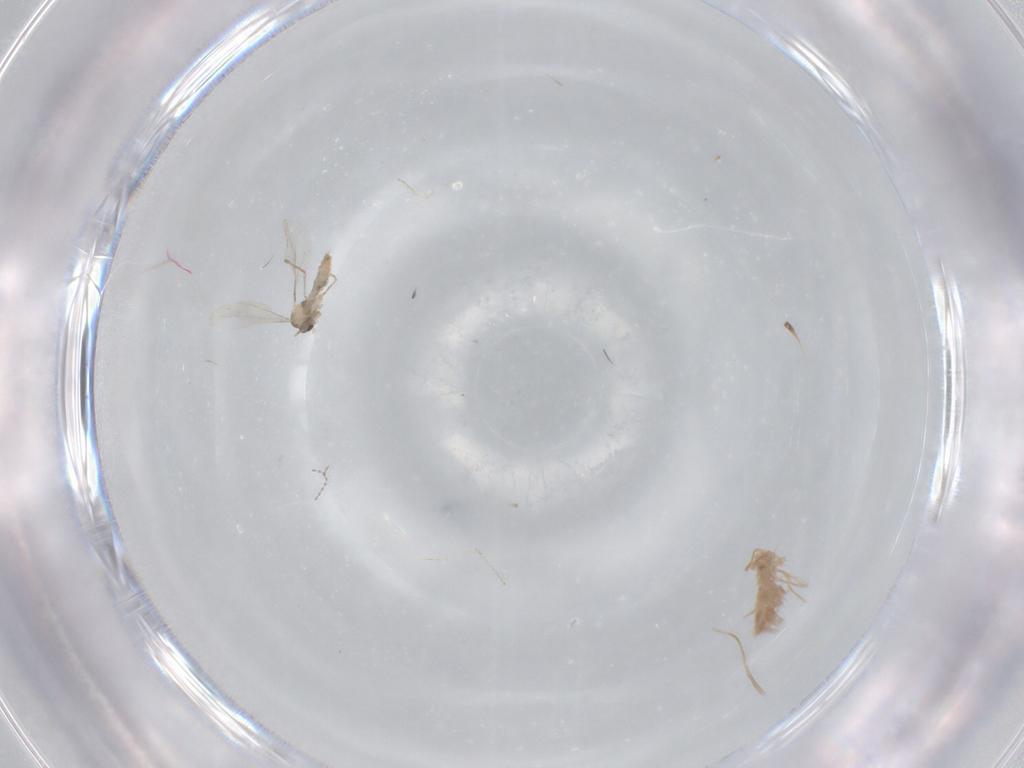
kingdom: Animalia
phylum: Arthropoda
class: Insecta
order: Diptera
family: Cecidomyiidae
